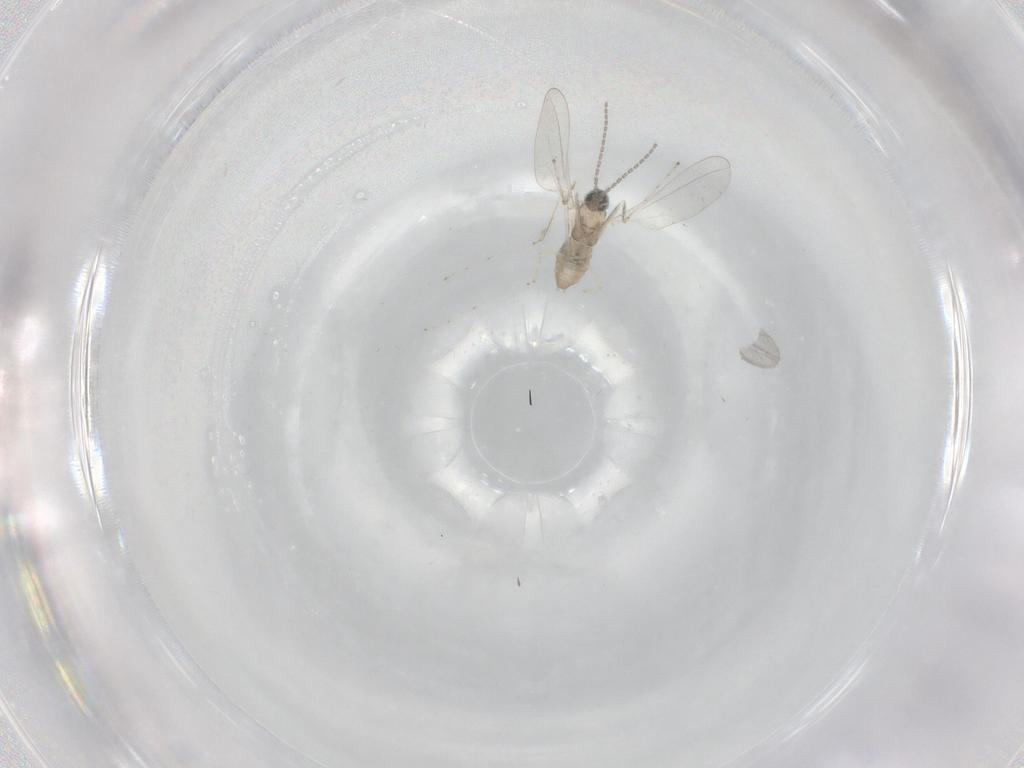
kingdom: Animalia
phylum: Arthropoda
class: Insecta
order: Diptera
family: Cecidomyiidae
